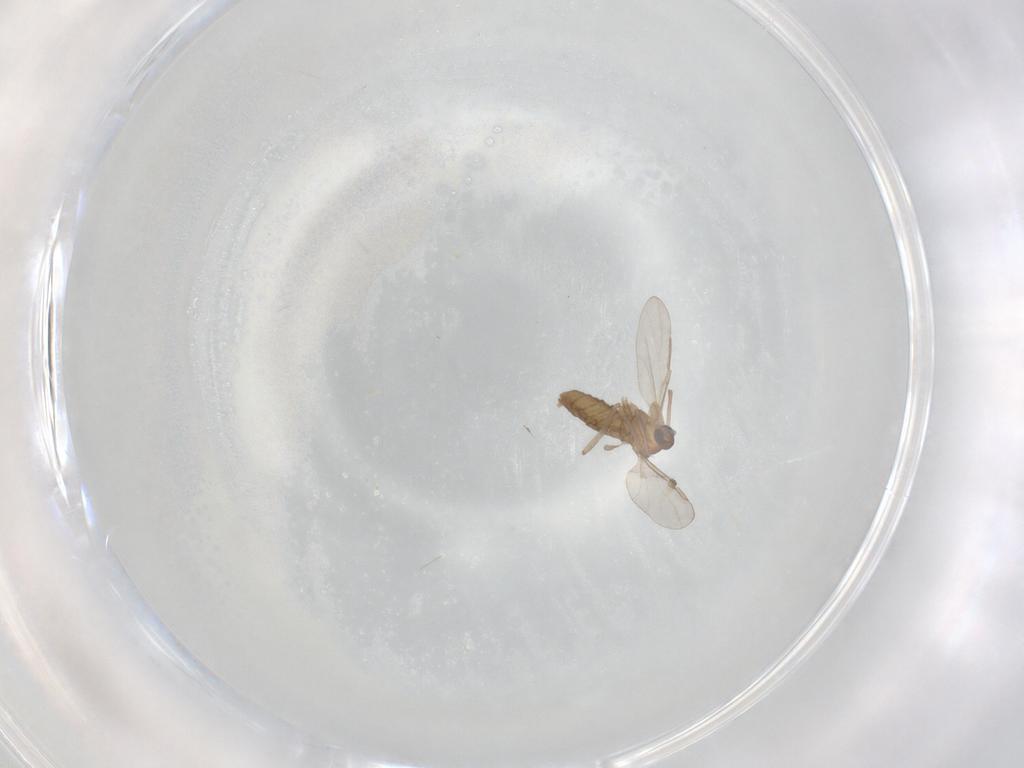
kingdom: Animalia
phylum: Arthropoda
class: Insecta
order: Diptera
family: Cecidomyiidae
